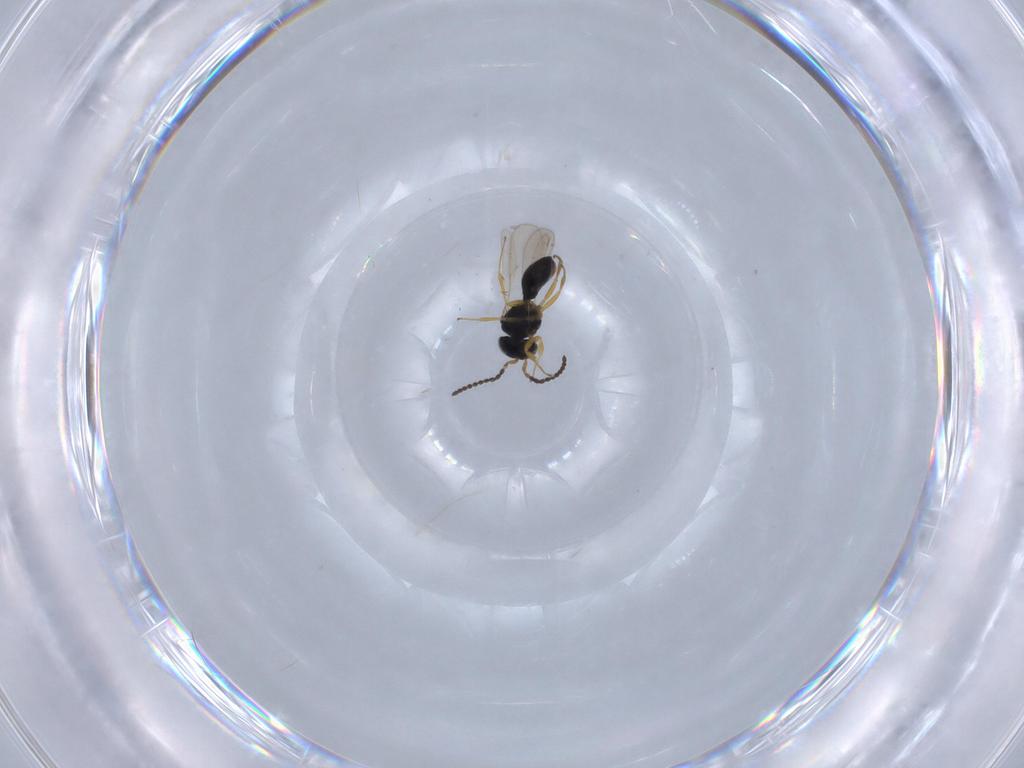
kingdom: Animalia
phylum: Arthropoda
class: Insecta
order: Hymenoptera
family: Scelionidae
